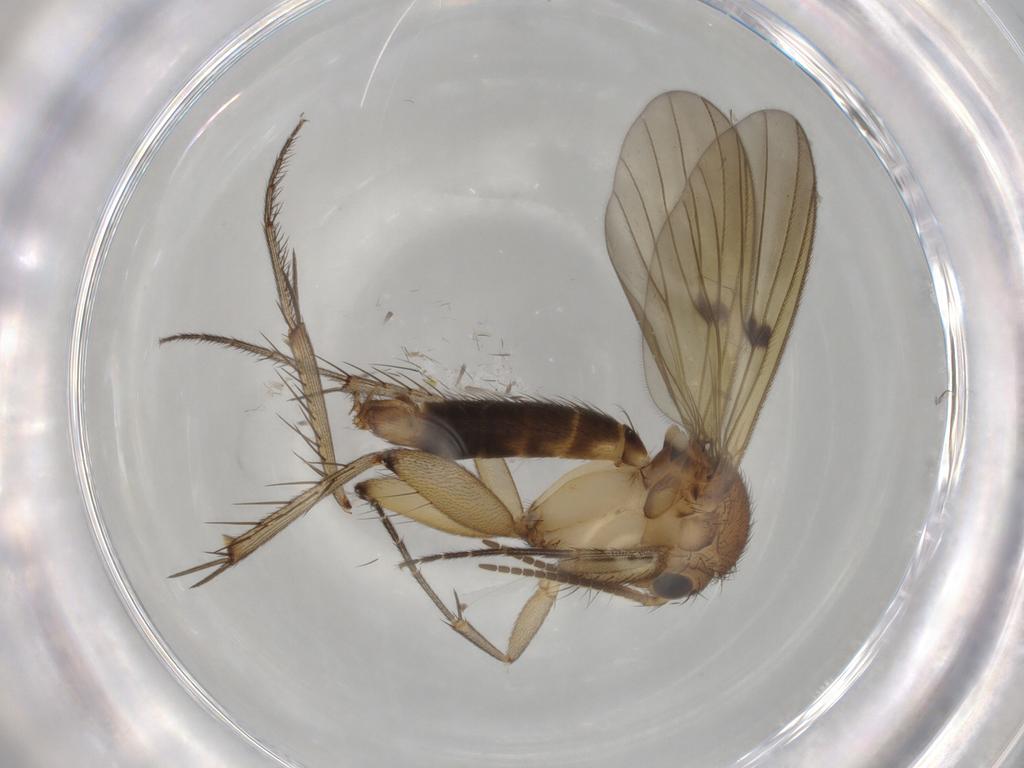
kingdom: Animalia
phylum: Arthropoda
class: Insecta
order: Diptera
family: Mycetophilidae
